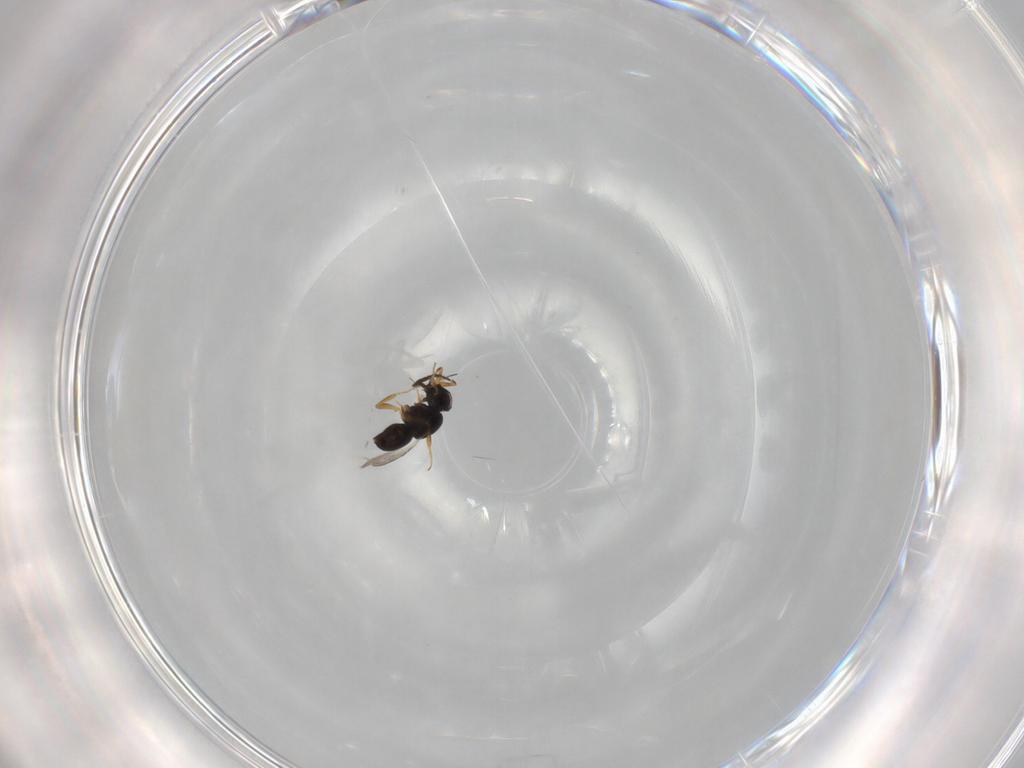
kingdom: Animalia
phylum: Arthropoda
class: Insecta
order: Hymenoptera
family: Ceraphronidae
